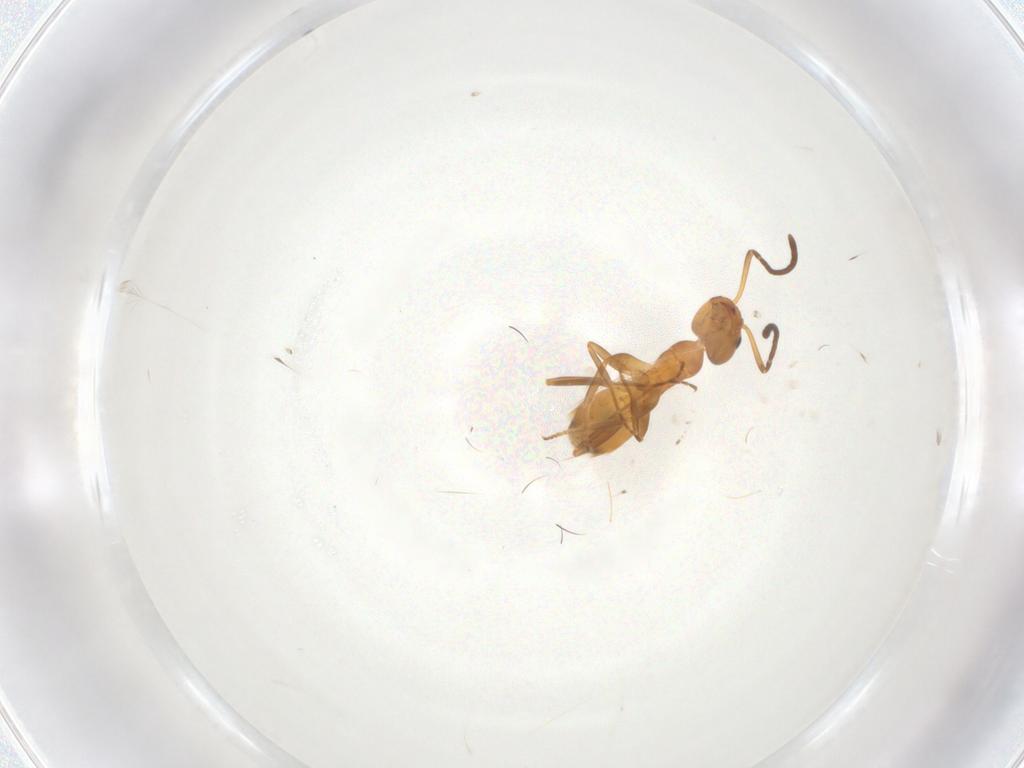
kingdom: Animalia
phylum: Arthropoda
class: Insecta
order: Hymenoptera
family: Formicidae
